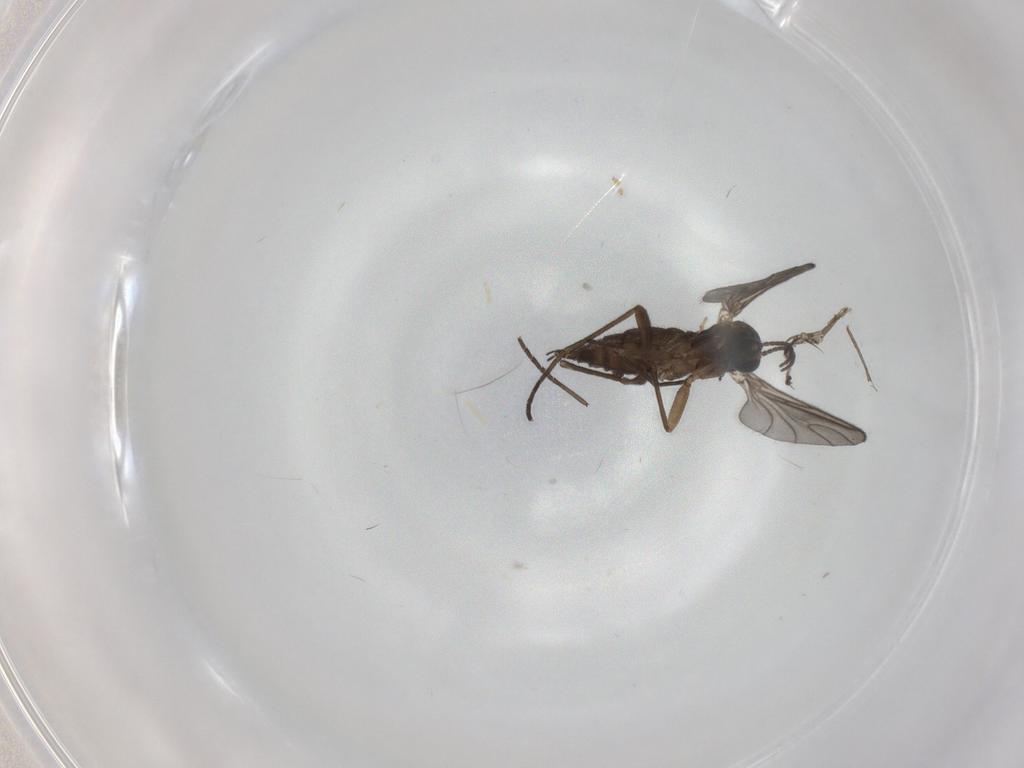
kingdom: Animalia
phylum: Arthropoda
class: Insecta
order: Diptera
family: Sciaridae
